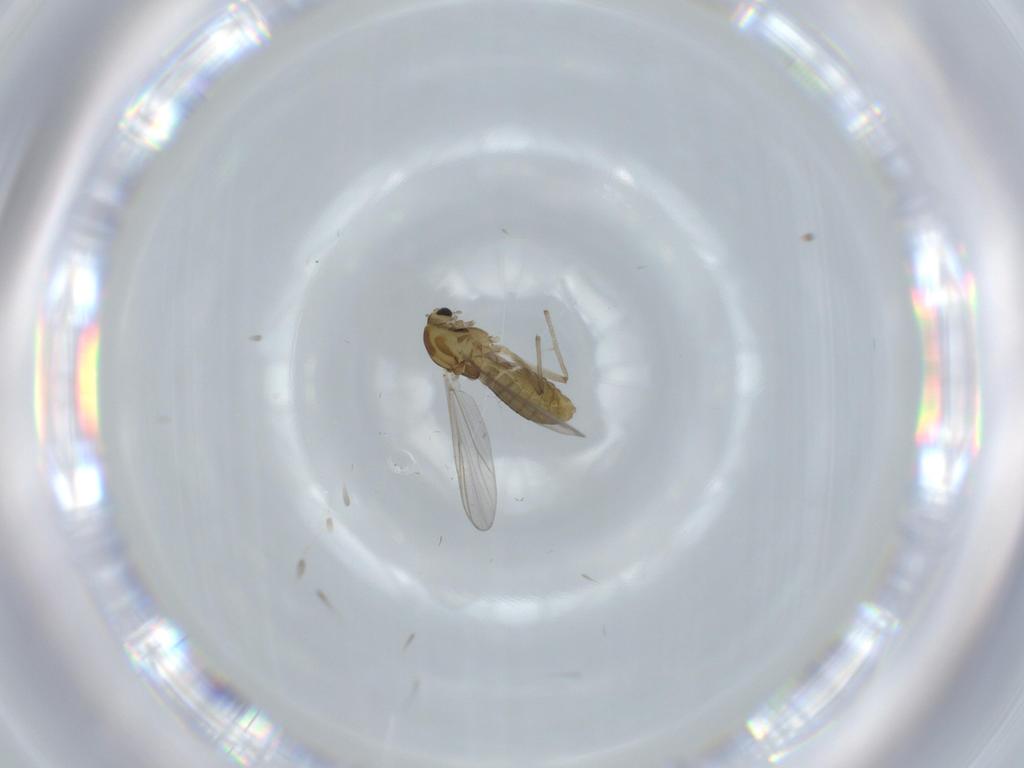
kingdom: Animalia
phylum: Arthropoda
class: Insecta
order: Diptera
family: Chironomidae
